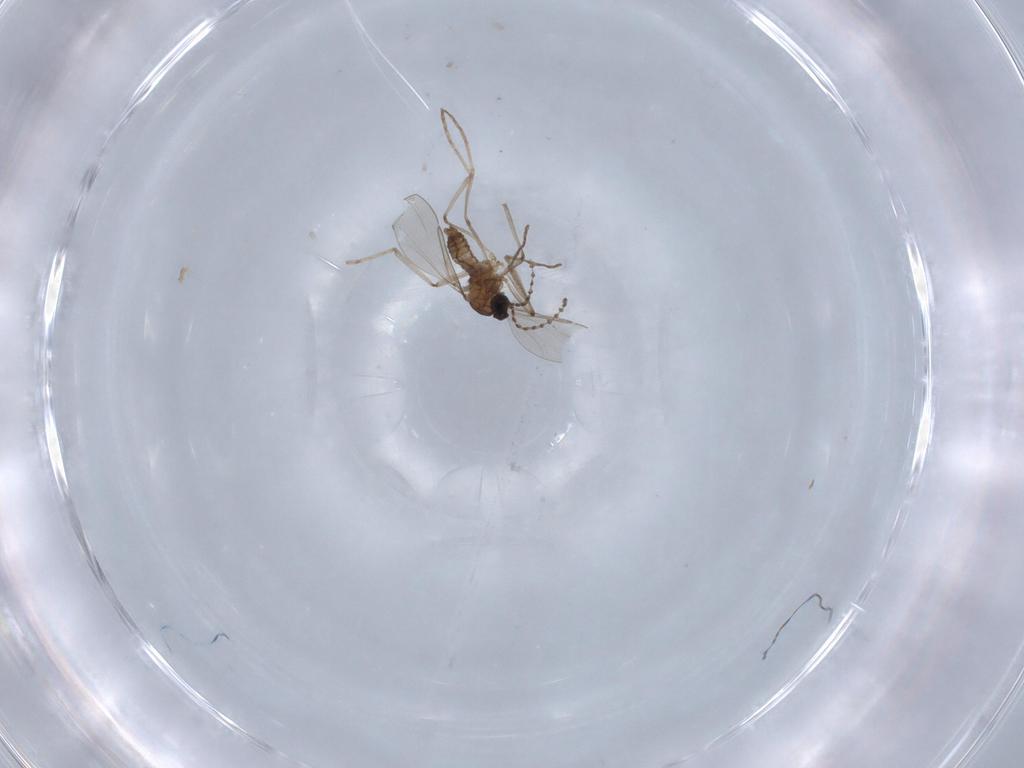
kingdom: Animalia
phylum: Arthropoda
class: Insecta
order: Diptera
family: Cecidomyiidae
